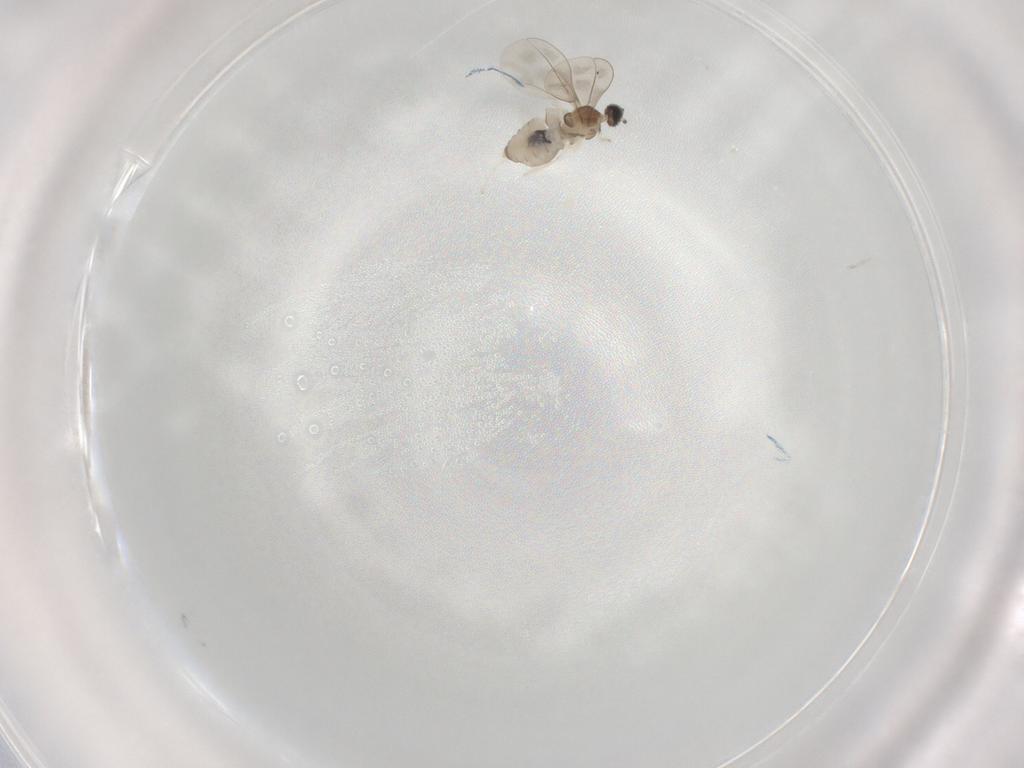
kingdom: Animalia
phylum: Arthropoda
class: Insecta
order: Diptera
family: Cecidomyiidae
